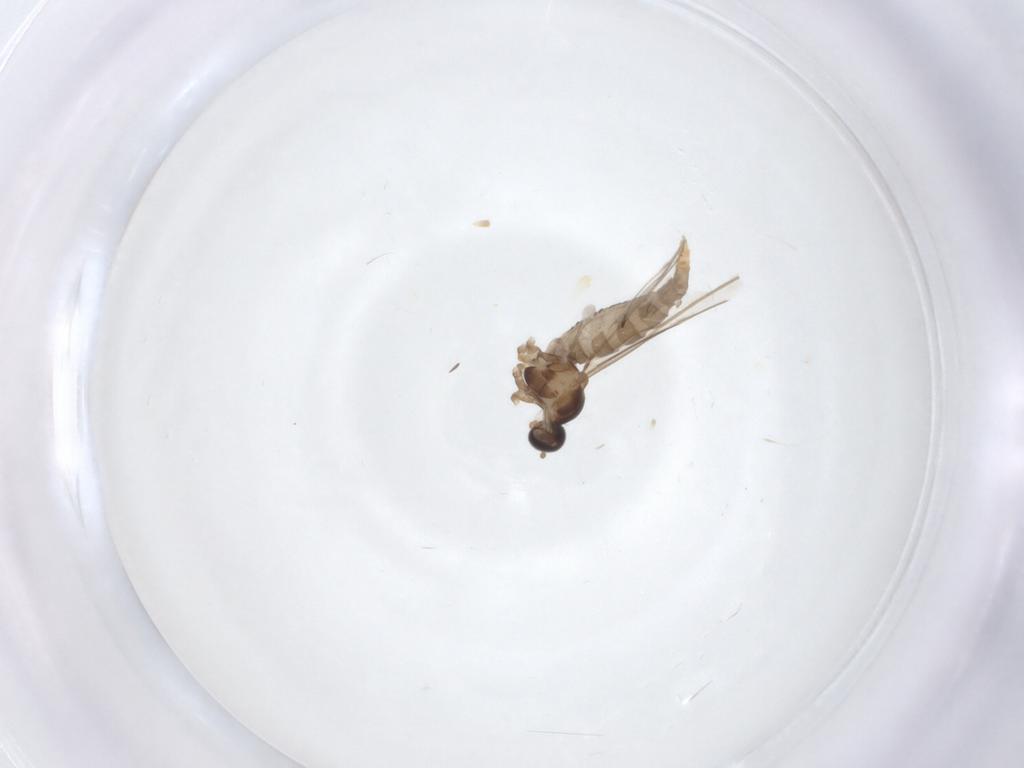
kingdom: Animalia
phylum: Arthropoda
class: Insecta
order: Diptera
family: Cecidomyiidae
